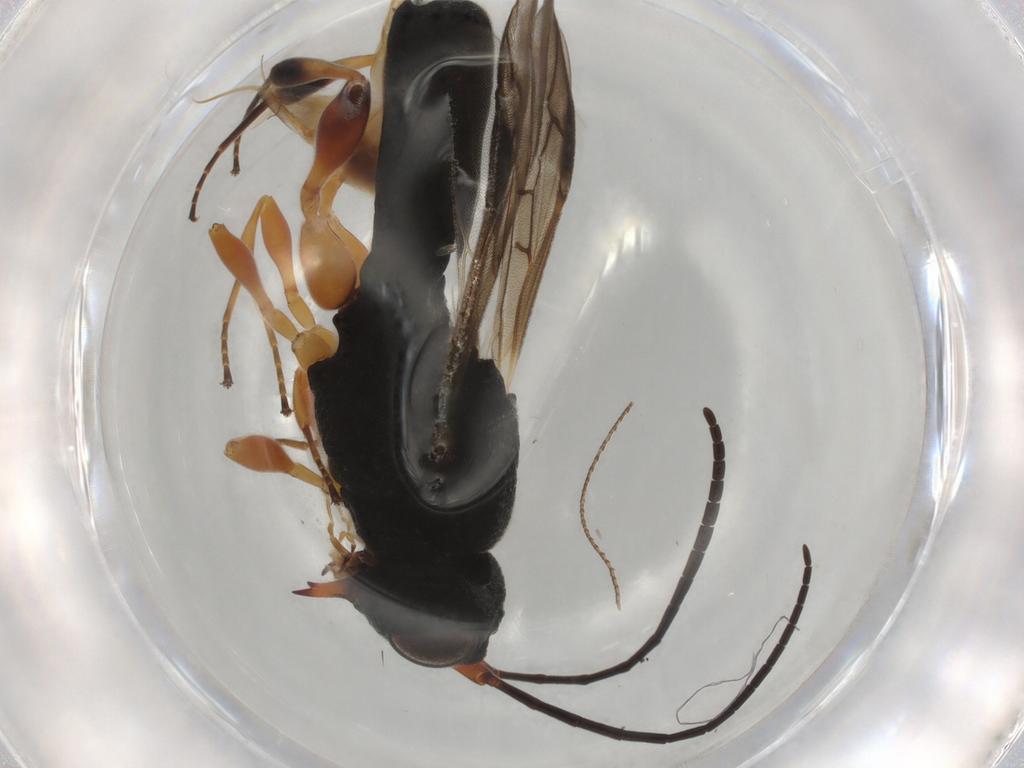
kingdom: Animalia
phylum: Arthropoda
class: Insecta
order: Hymenoptera
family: Braconidae
